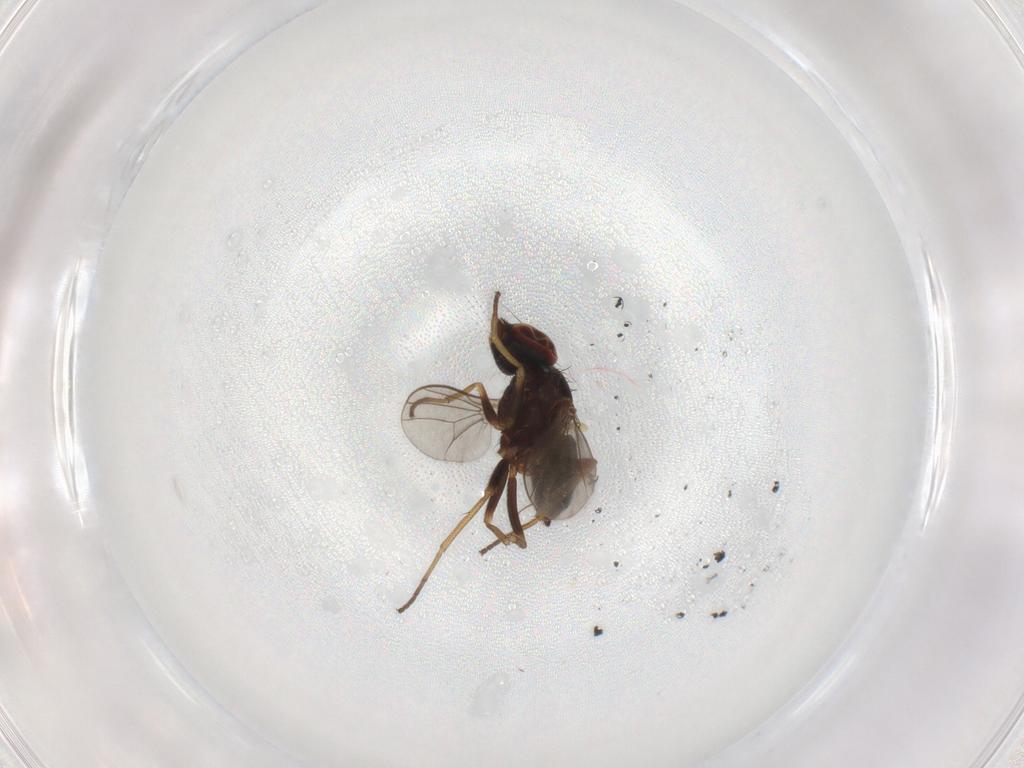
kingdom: Animalia
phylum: Arthropoda
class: Insecta
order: Diptera
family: Dolichopodidae
